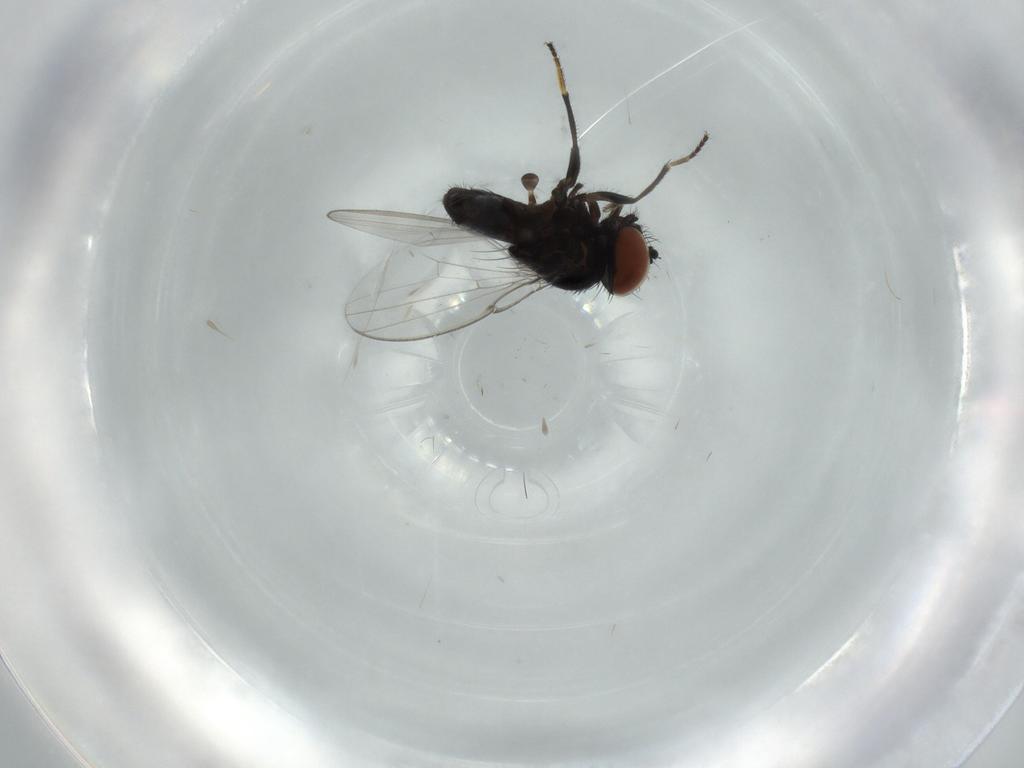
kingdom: Animalia
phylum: Arthropoda
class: Insecta
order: Diptera
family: Milichiidae
